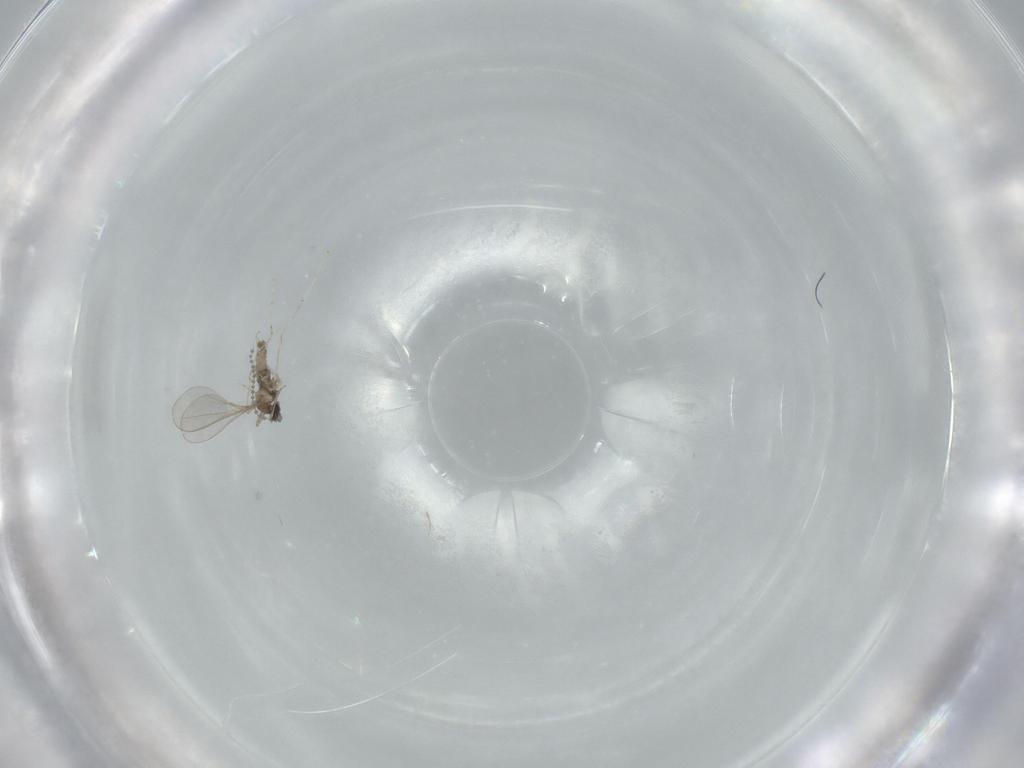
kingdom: Animalia
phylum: Arthropoda
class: Insecta
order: Diptera
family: Cecidomyiidae
